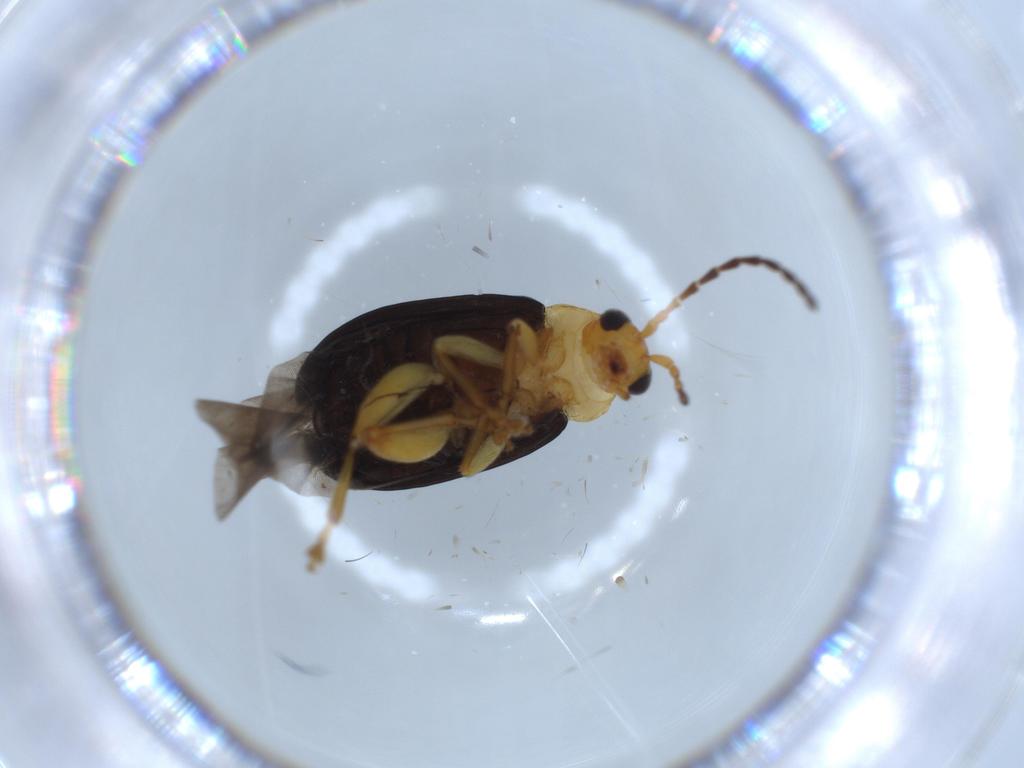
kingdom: Animalia
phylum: Arthropoda
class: Insecta
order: Coleoptera
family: Chrysomelidae
